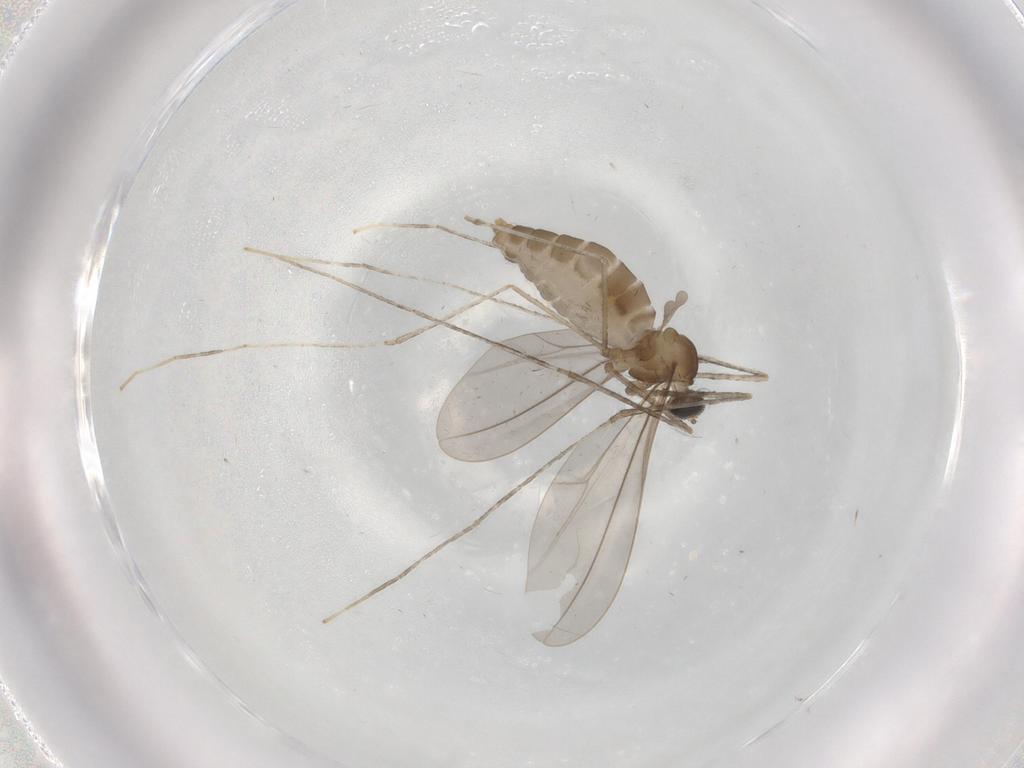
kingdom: Animalia
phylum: Arthropoda
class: Insecta
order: Diptera
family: Cecidomyiidae
